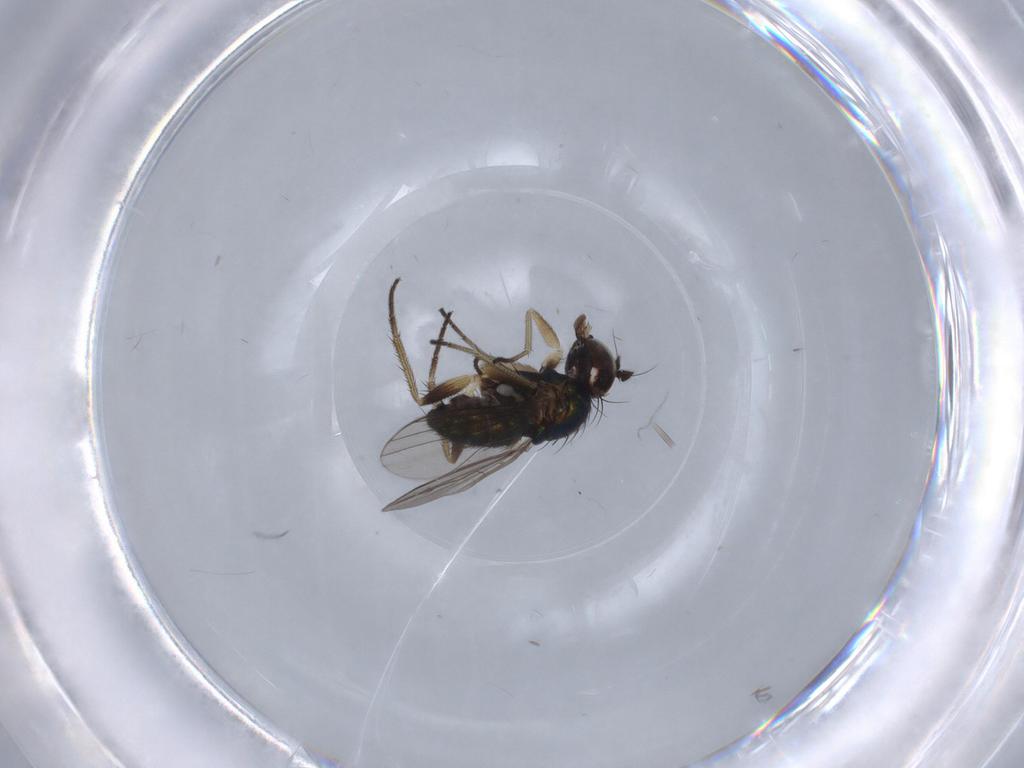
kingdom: Animalia
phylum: Arthropoda
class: Insecta
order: Diptera
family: Dolichopodidae
